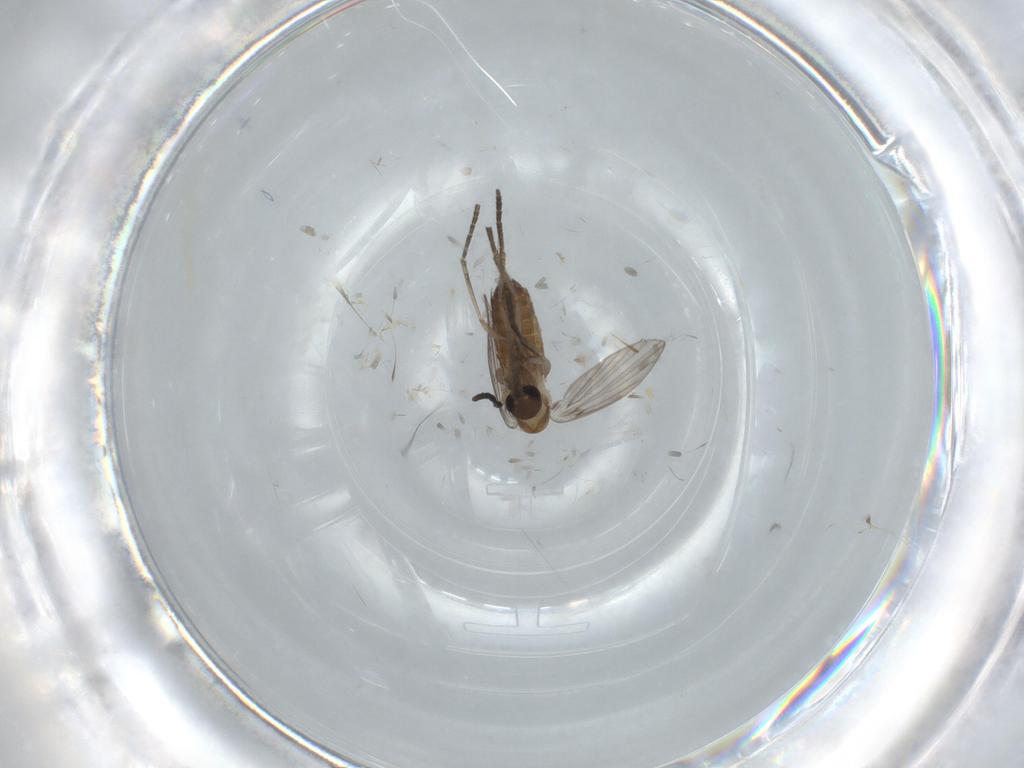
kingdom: Animalia
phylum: Arthropoda
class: Insecta
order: Diptera
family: Psychodidae
